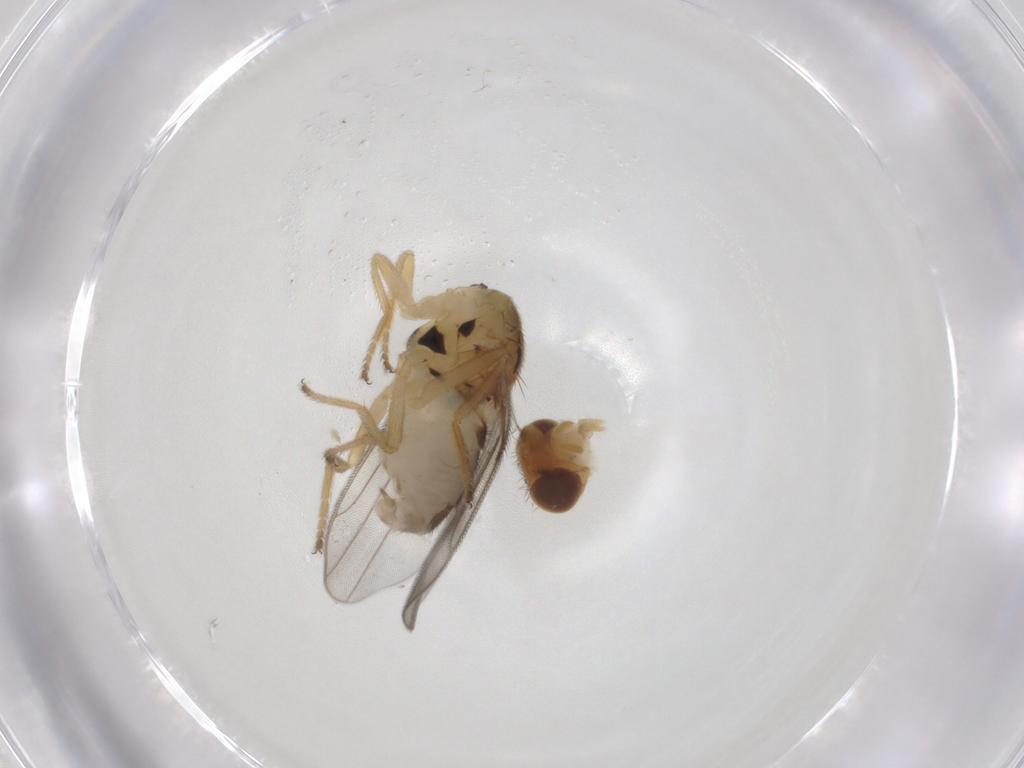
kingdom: Animalia
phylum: Arthropoda
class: Insecta
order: Diptera
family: Chloropidae
